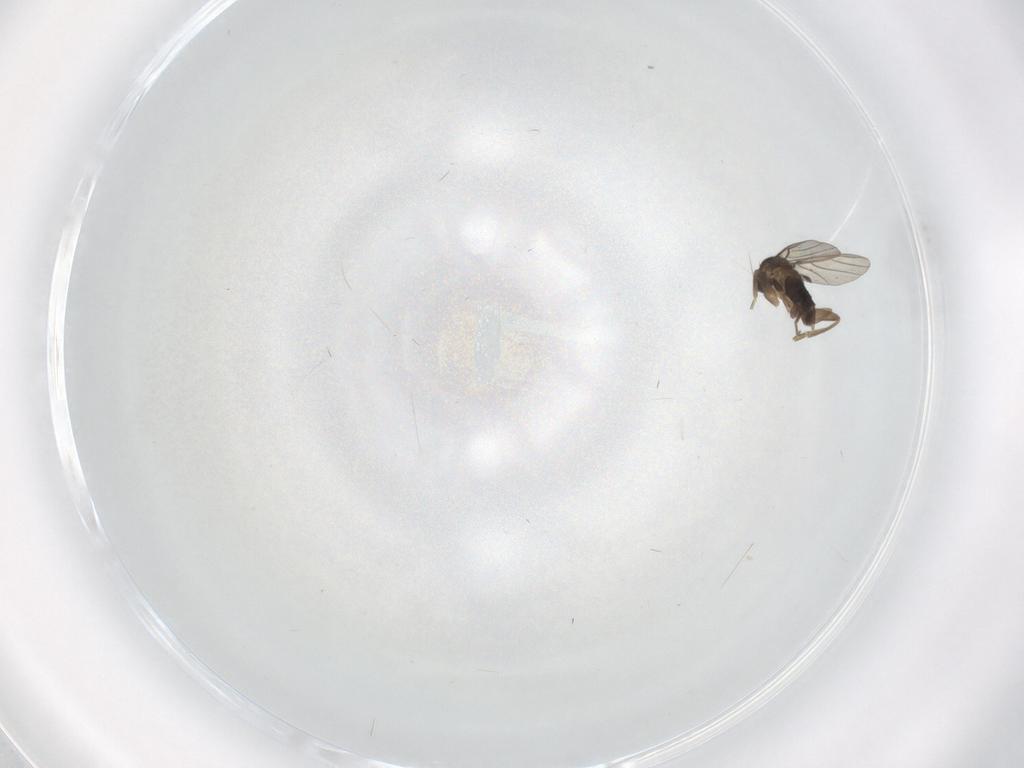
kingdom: Animalia
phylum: Arthropoda
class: Insecta
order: Diptera
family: Phoridae
